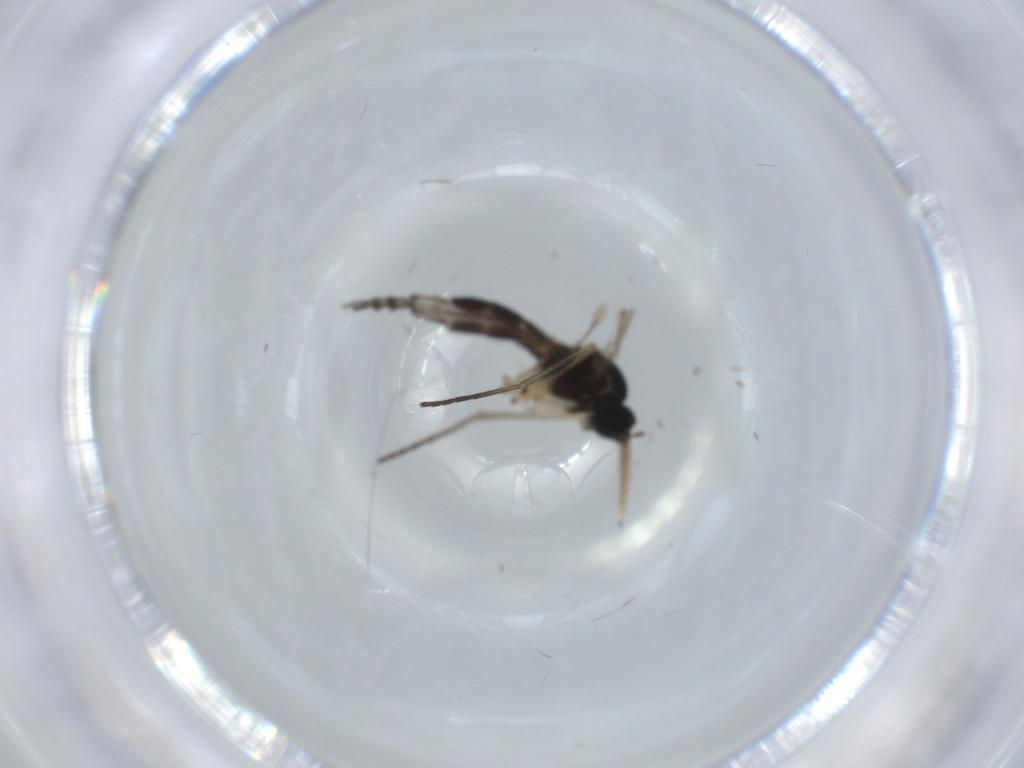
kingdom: Animalia
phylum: Arthropoda
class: Insecta
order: Diptera
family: Sciaridae
